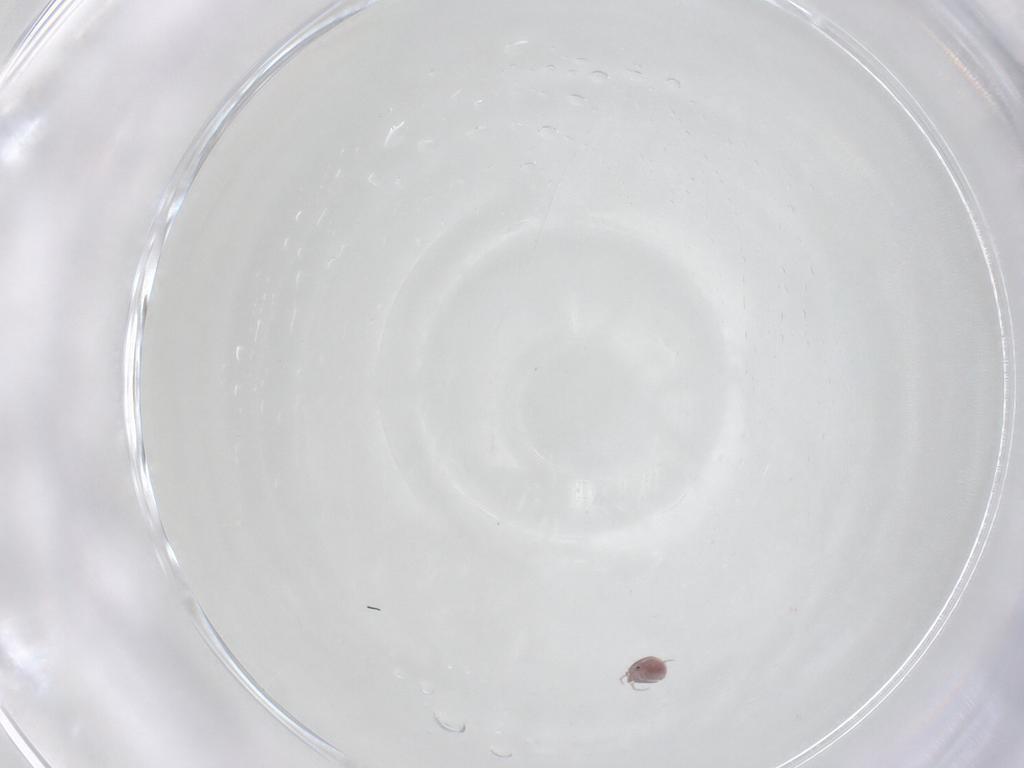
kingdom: Animalia
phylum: Arthropoda
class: Arachnida
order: Trombidiformes
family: Pionidae
